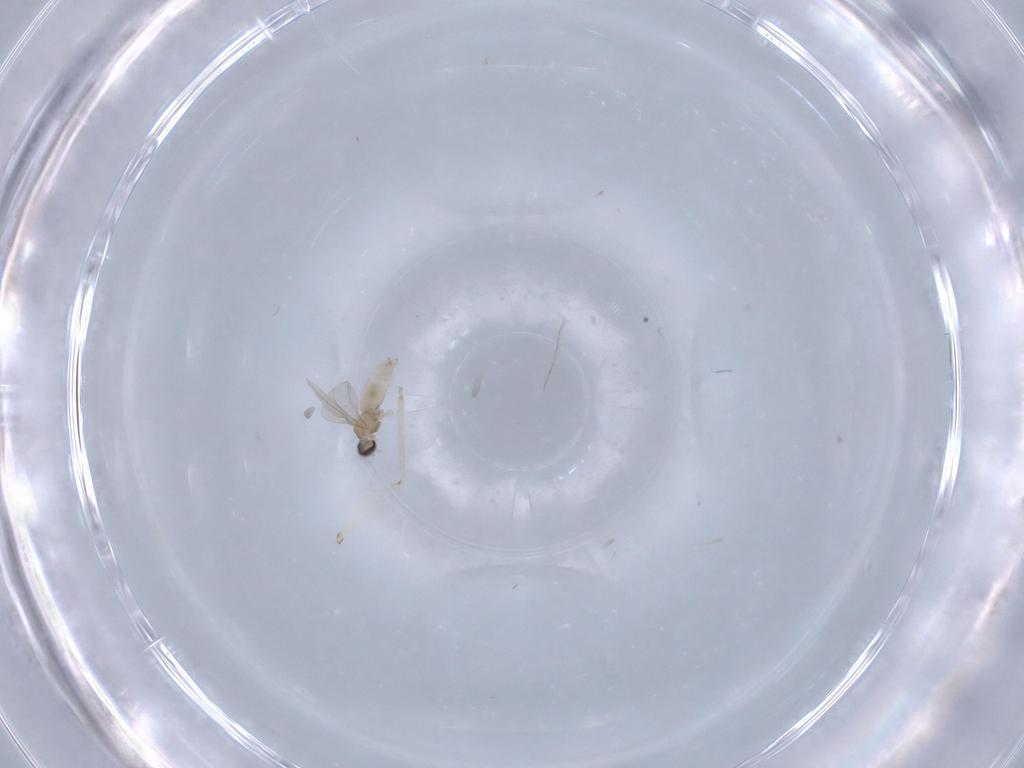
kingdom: Animalia
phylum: Arthropoda
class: Insecta
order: Diptera
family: Cecidomyiidae
